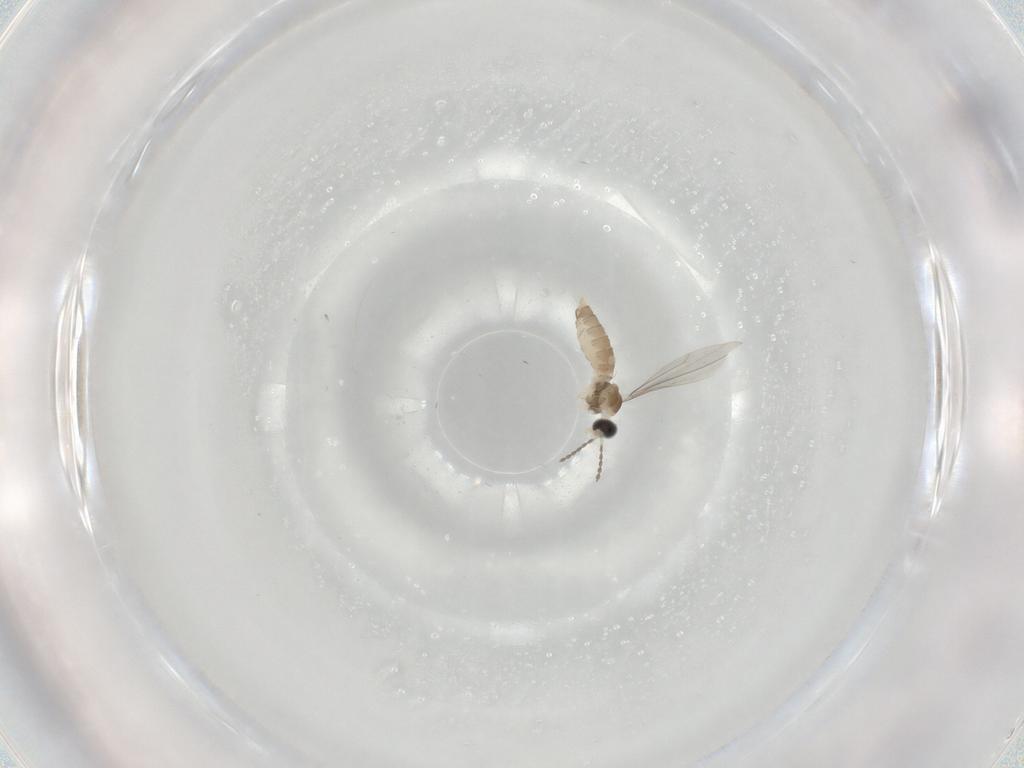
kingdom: Animalia
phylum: Arthropoda
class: Insecta
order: Diptera
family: Cecidomyiidae
